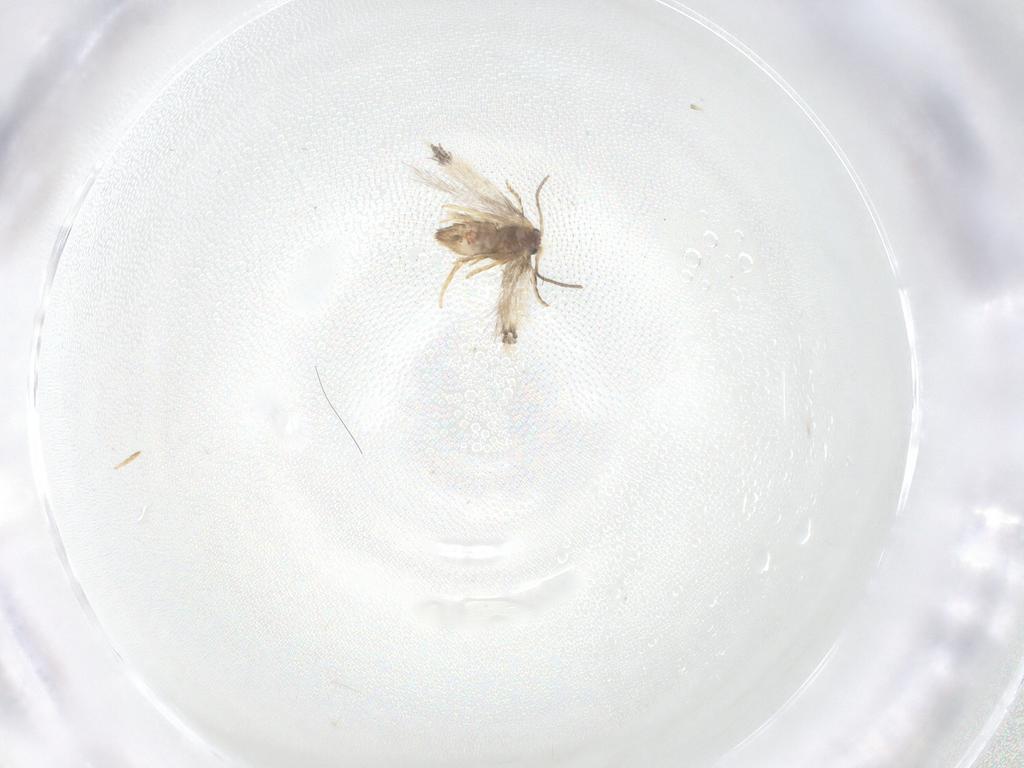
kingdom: Animalia
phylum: Arthropoda
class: Insecta
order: Lepidoptera
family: Nepticulidae
